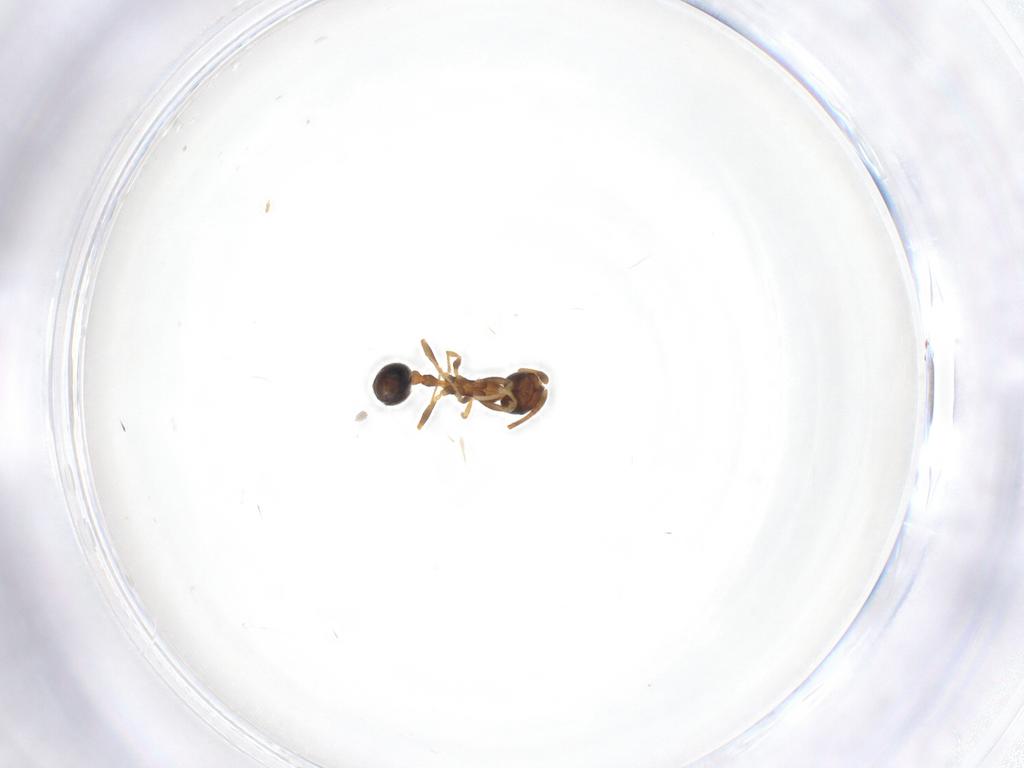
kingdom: Animalia
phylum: Arthropoda
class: Insecta
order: Hymenoptera
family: Formicidae
